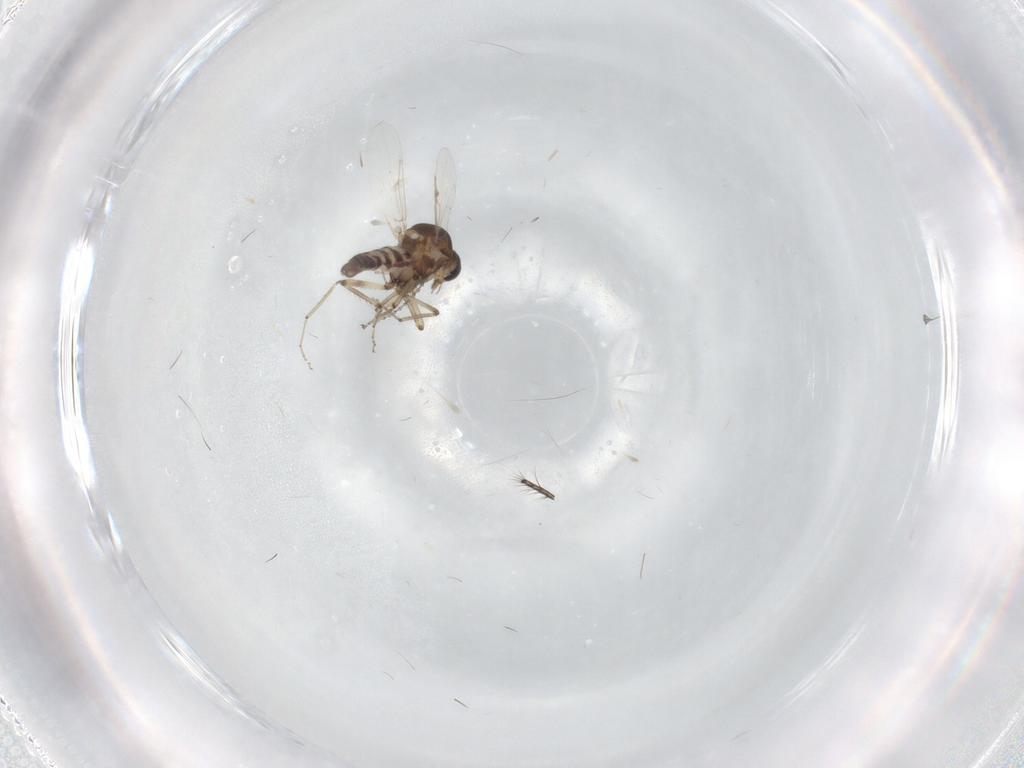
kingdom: Animalia
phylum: Arthropoda
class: Insecta
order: Diptera
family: Ceratopogonidae
